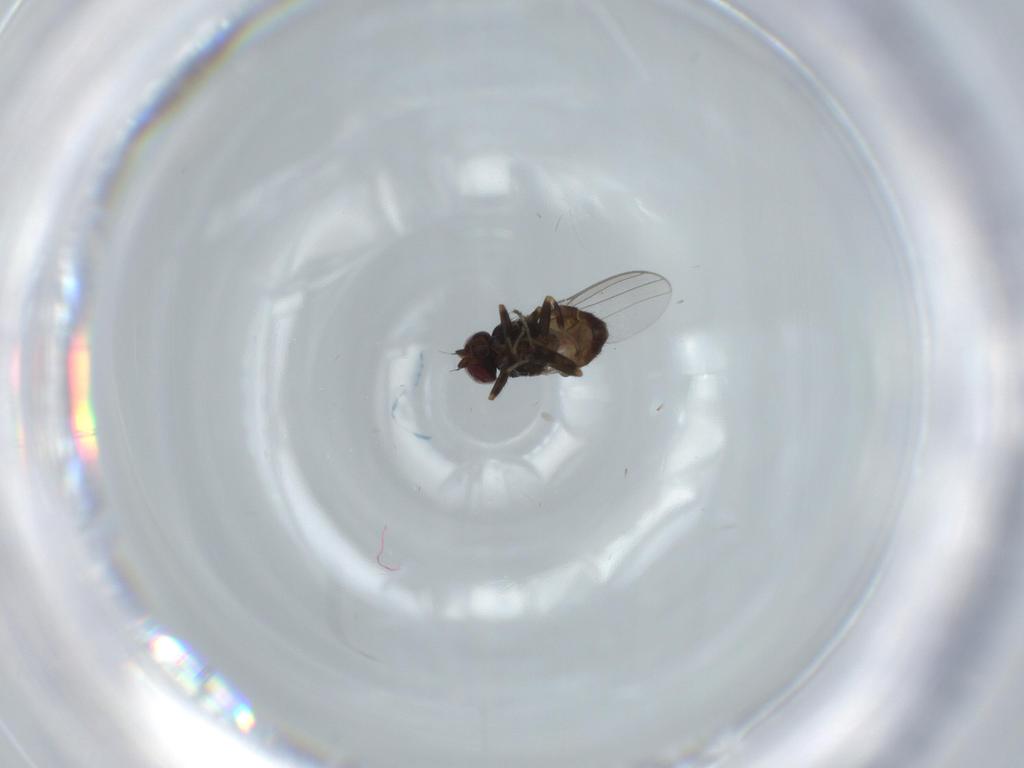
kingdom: Animalia
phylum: Arthropoda
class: Insecta
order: Diptera
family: Chloropidae
